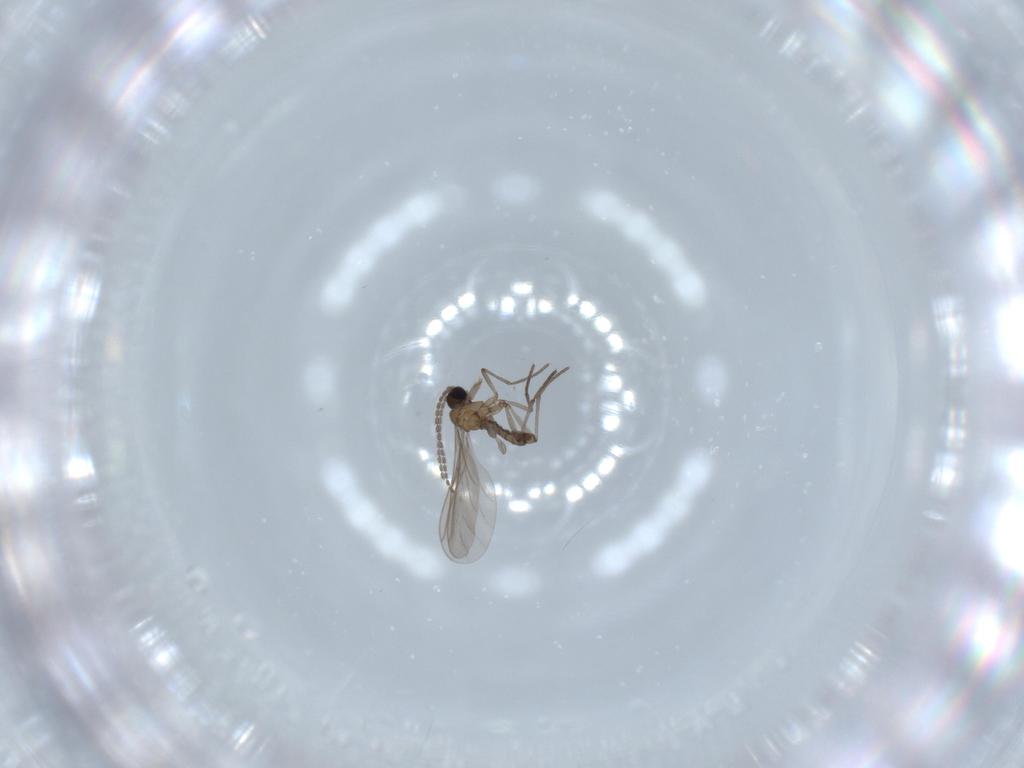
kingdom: Animalia
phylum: Arthropoda
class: Insecta
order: Diptera
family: Sciaridae
